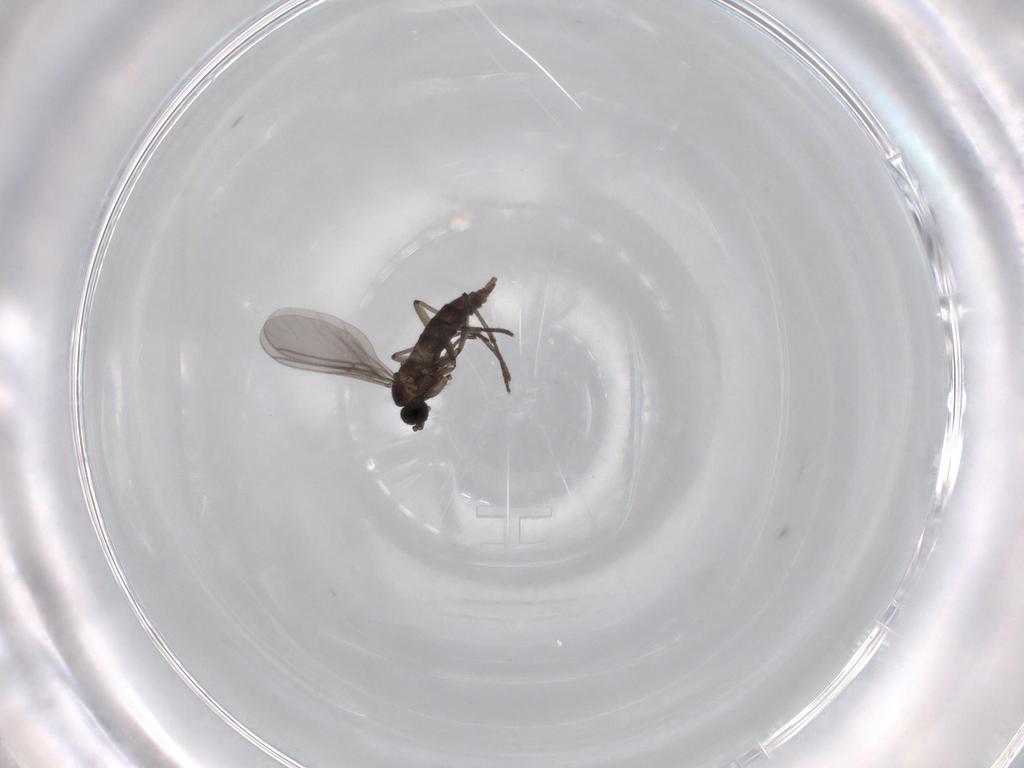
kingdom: Animalia
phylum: Arthropoda
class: Insecta
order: Diptera
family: Sciaridae
